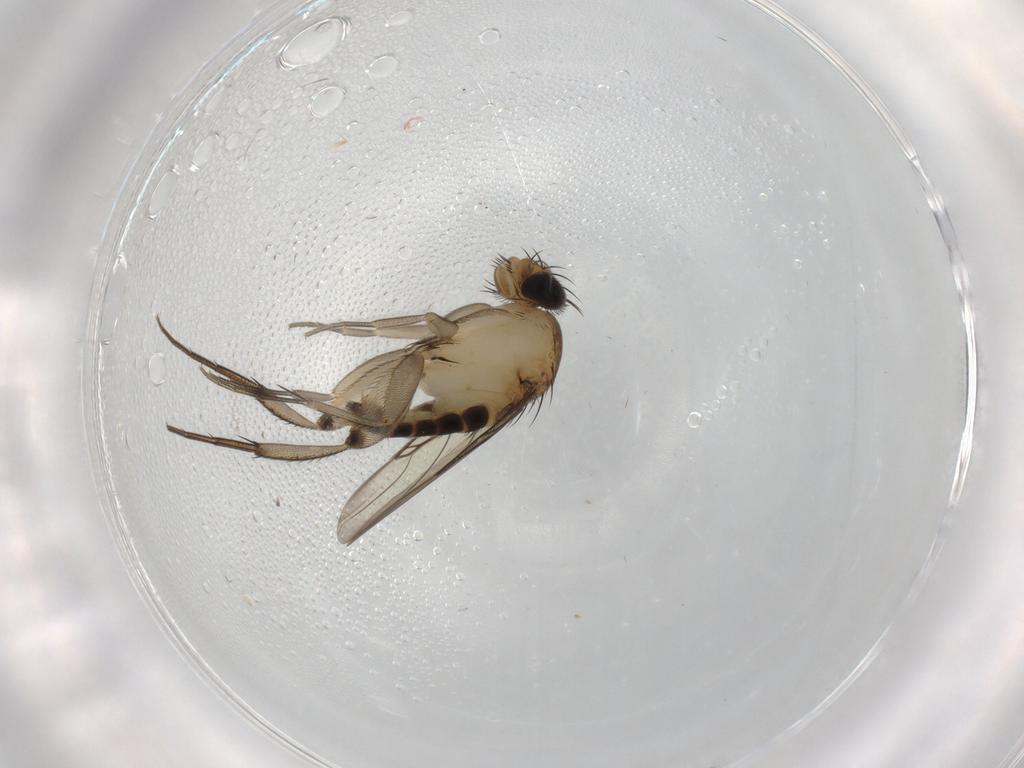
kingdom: Animalia
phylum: Arthropoda
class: Insecta
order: Diptera
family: Phoridae
